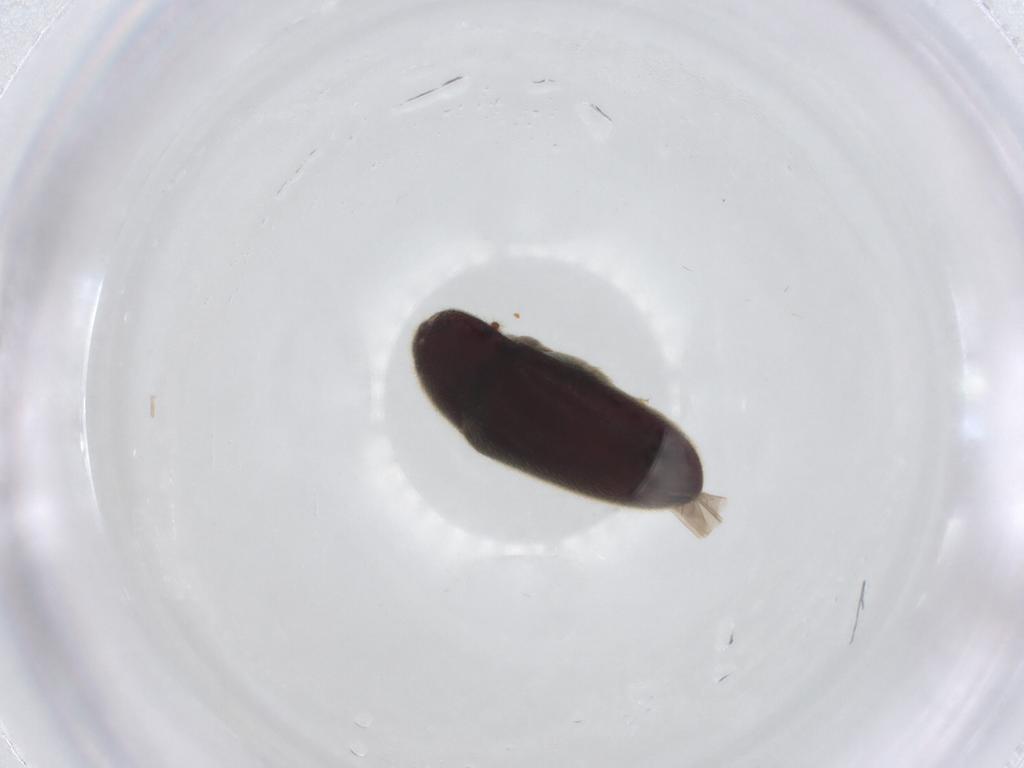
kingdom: Animalia
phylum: Arthropoda
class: Insecta
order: Coleoptera
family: Throscidae
